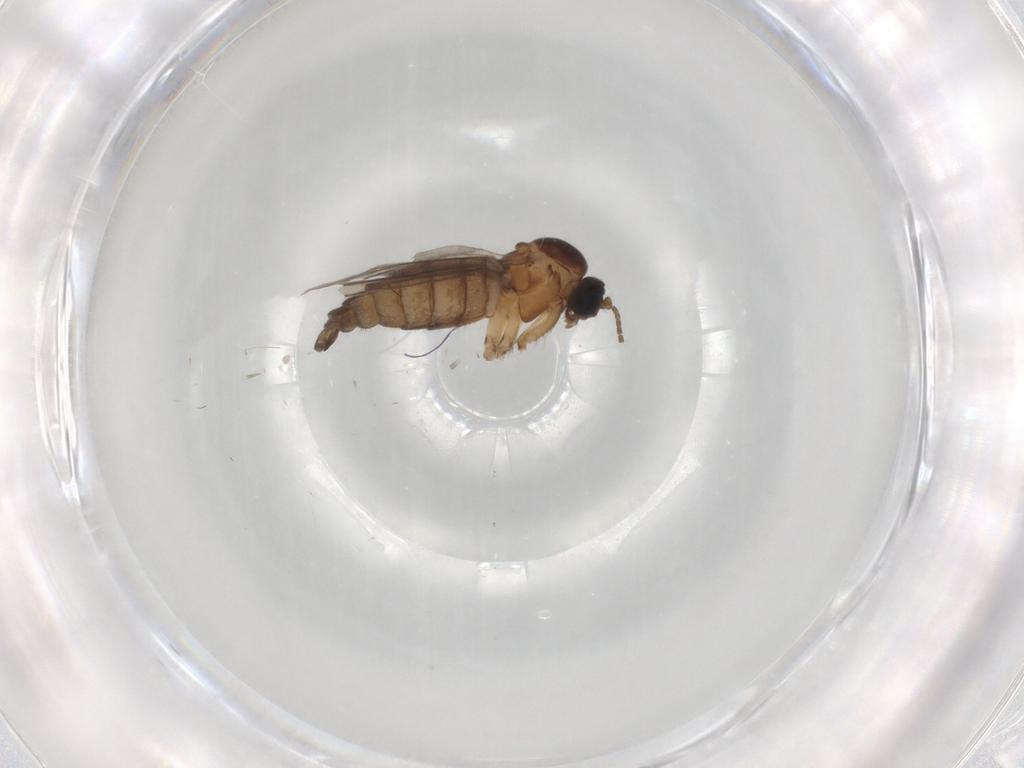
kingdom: Animalia
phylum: Arthropoda
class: Insecta
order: Diptera
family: Sciaridae
